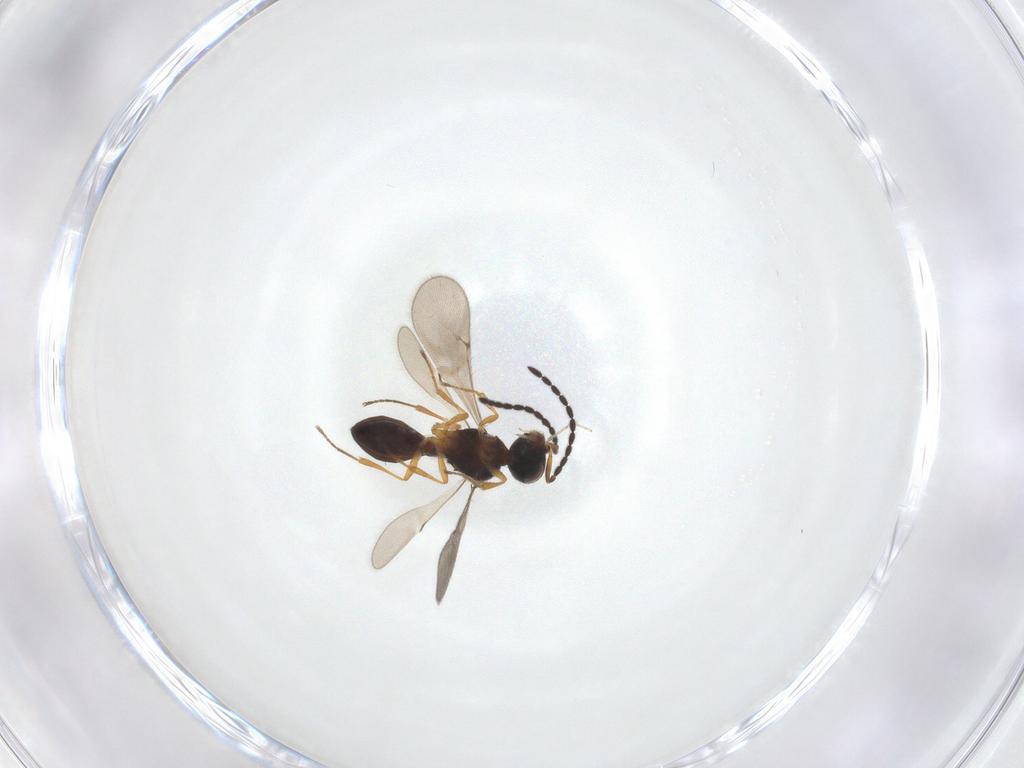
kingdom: Animalia
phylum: Arthropoda
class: Insecta
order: Hymenoptera
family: Scelionidae
